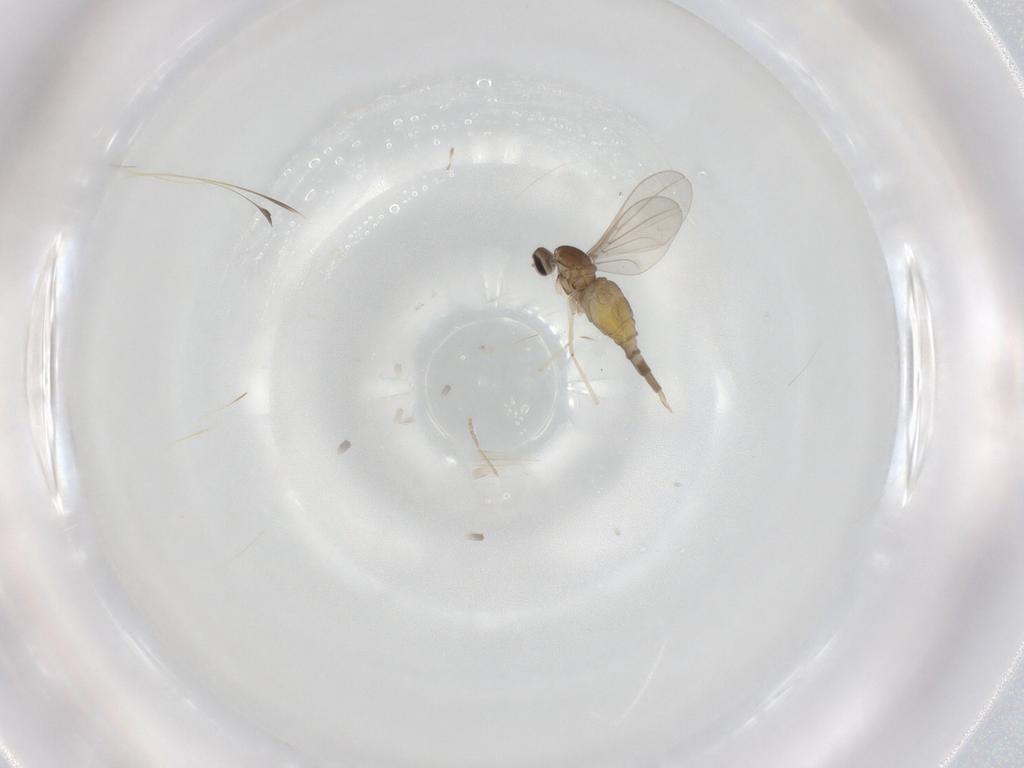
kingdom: Animalia
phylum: Arthropoda
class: Insecta
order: Diptera
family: Cecidomyiidae
